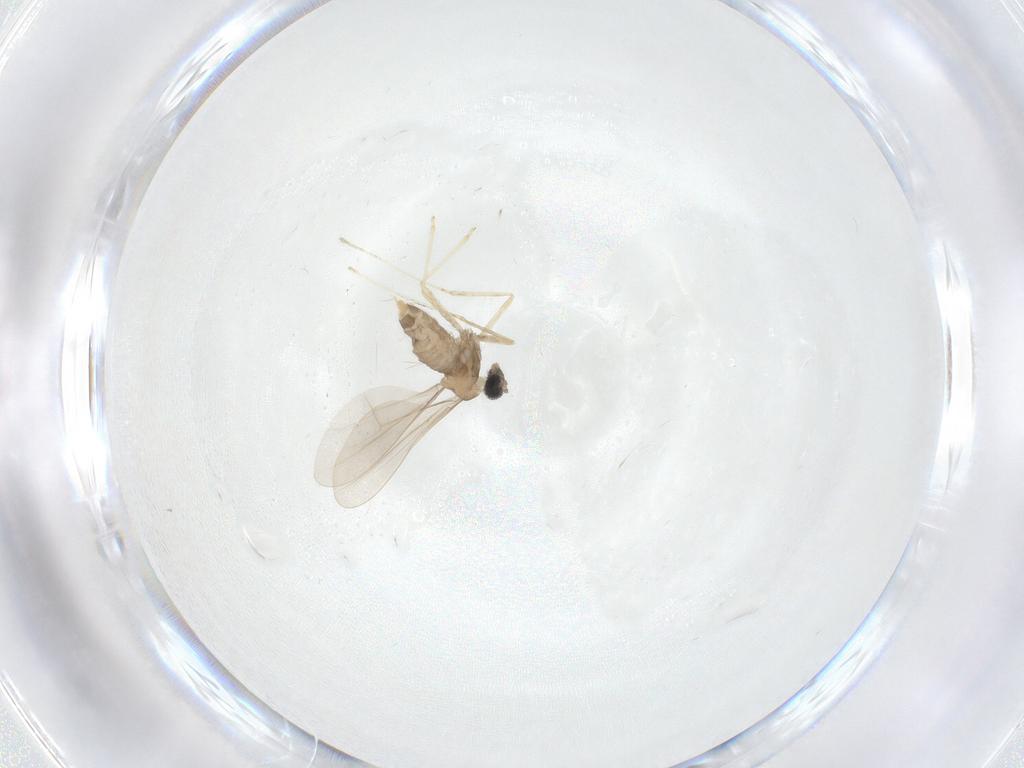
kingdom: Animalia
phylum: Arthropoda
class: Insecta
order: Diptera
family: Cecidomyiidae
